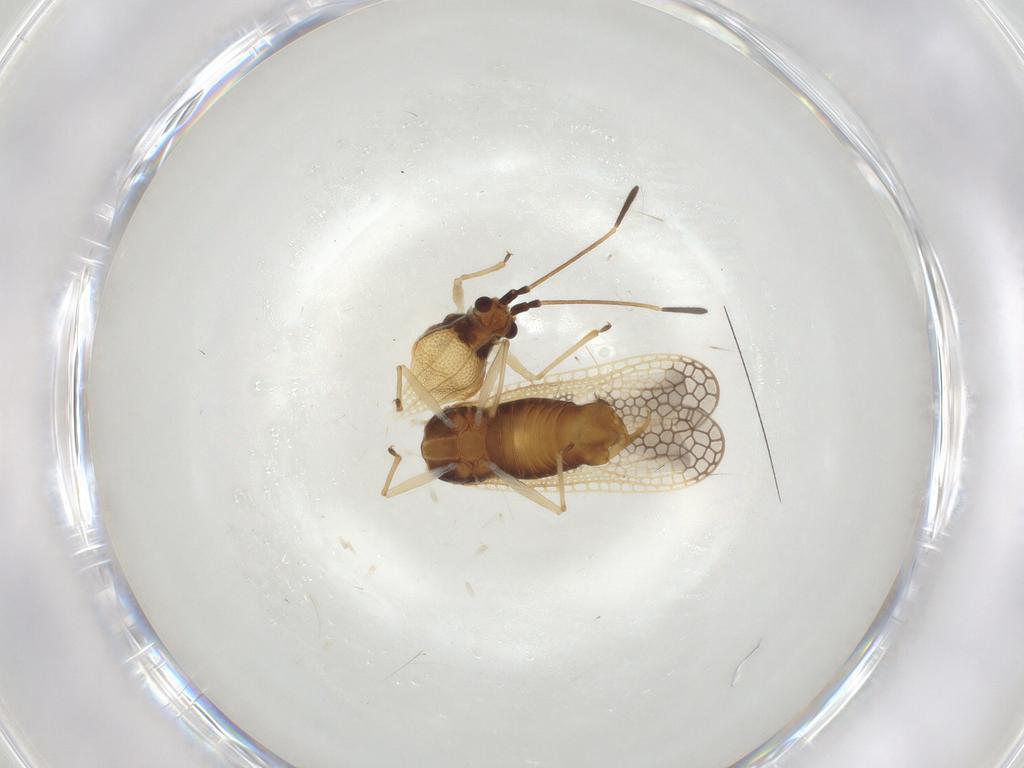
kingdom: Animalia
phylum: Arthropoda
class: Insecta
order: Hemiptera
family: Tingidae
